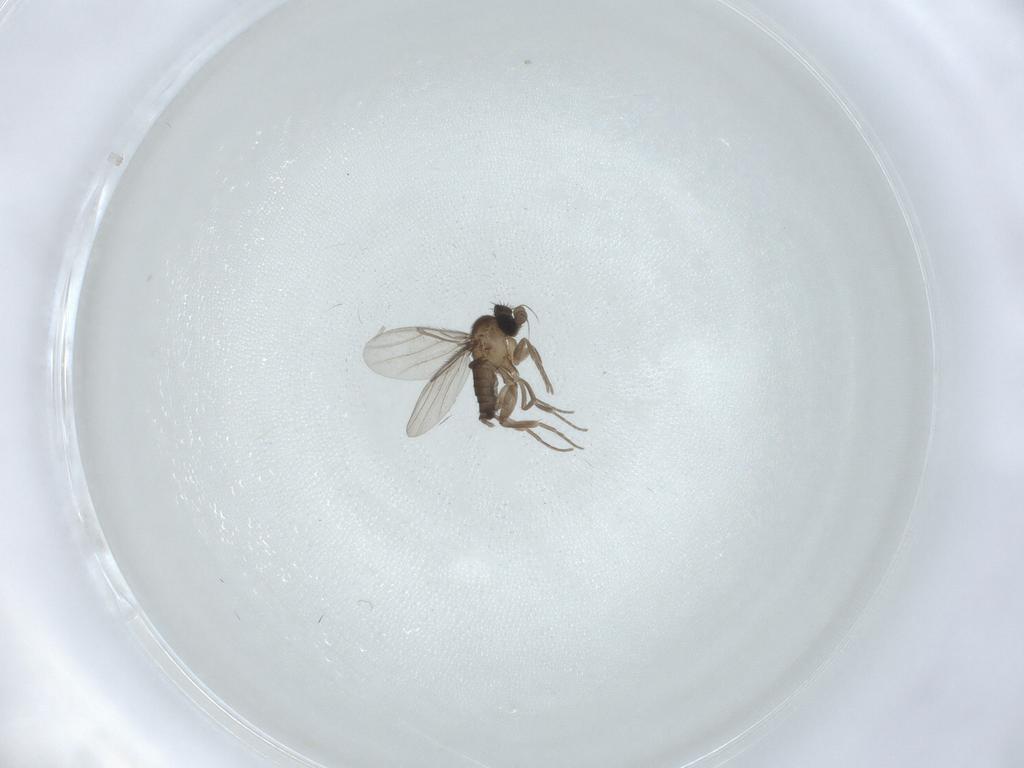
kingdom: Animalia
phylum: Arthropoda
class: Insecta
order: Diptera
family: Phoridae
